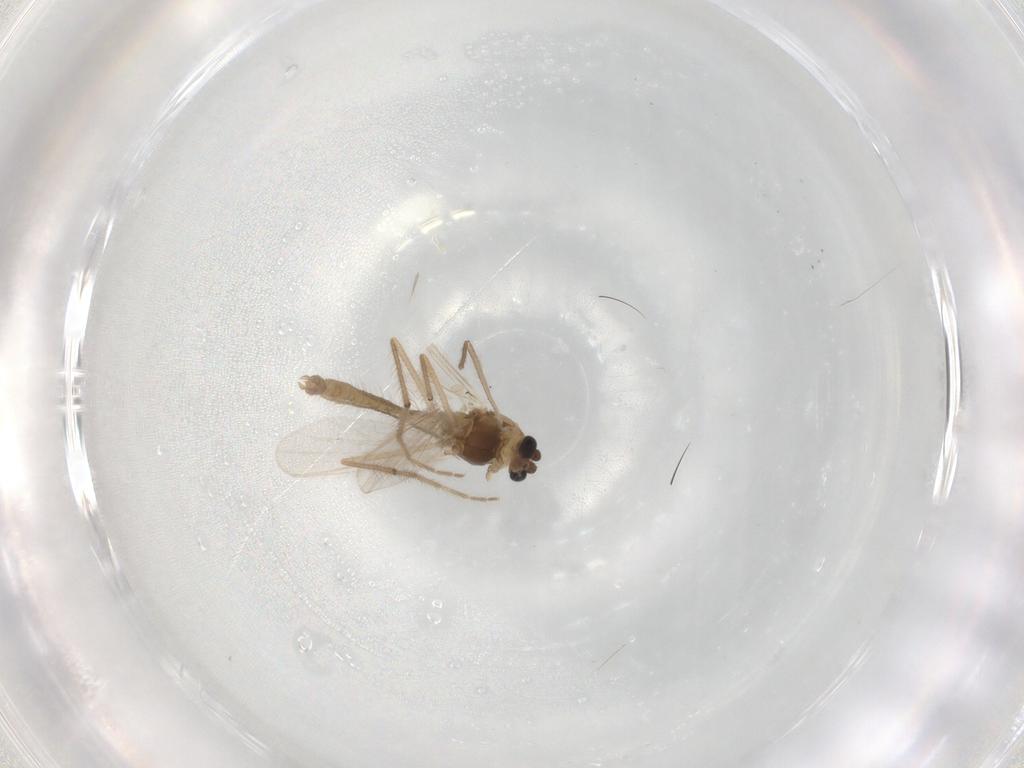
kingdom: Animalia
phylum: Arthropoda
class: Insecta
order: Diptera
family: Chironomidae
